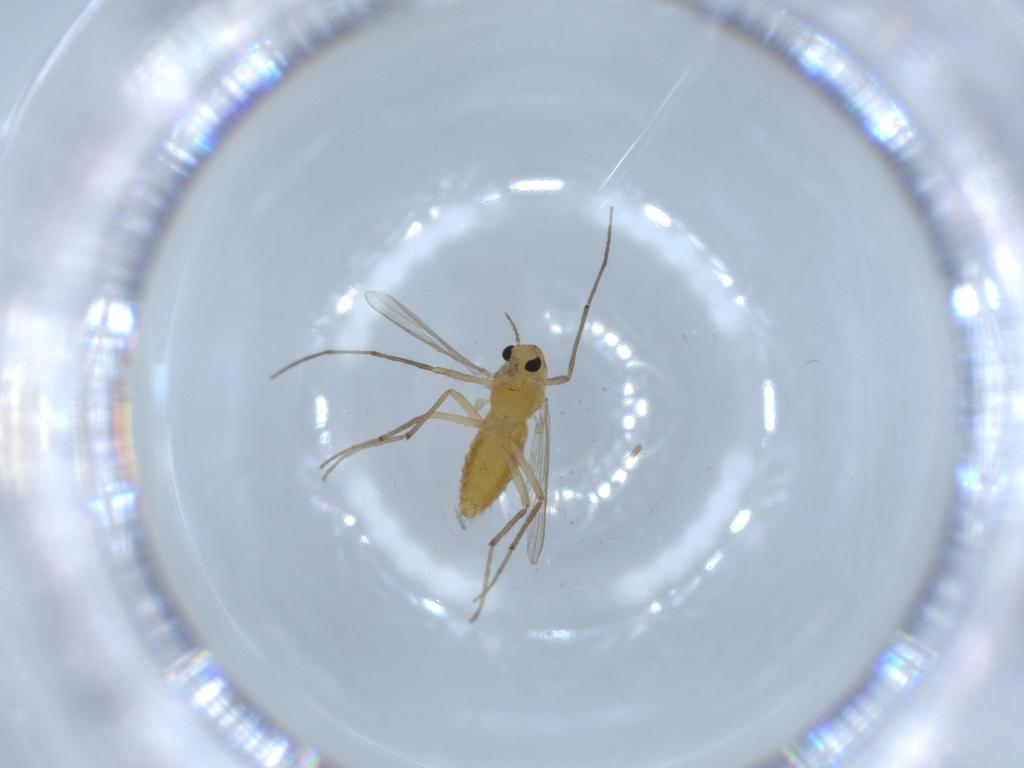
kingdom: Animalia
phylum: Arthropoda
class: Insecta
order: Diptera
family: Chironomidae
